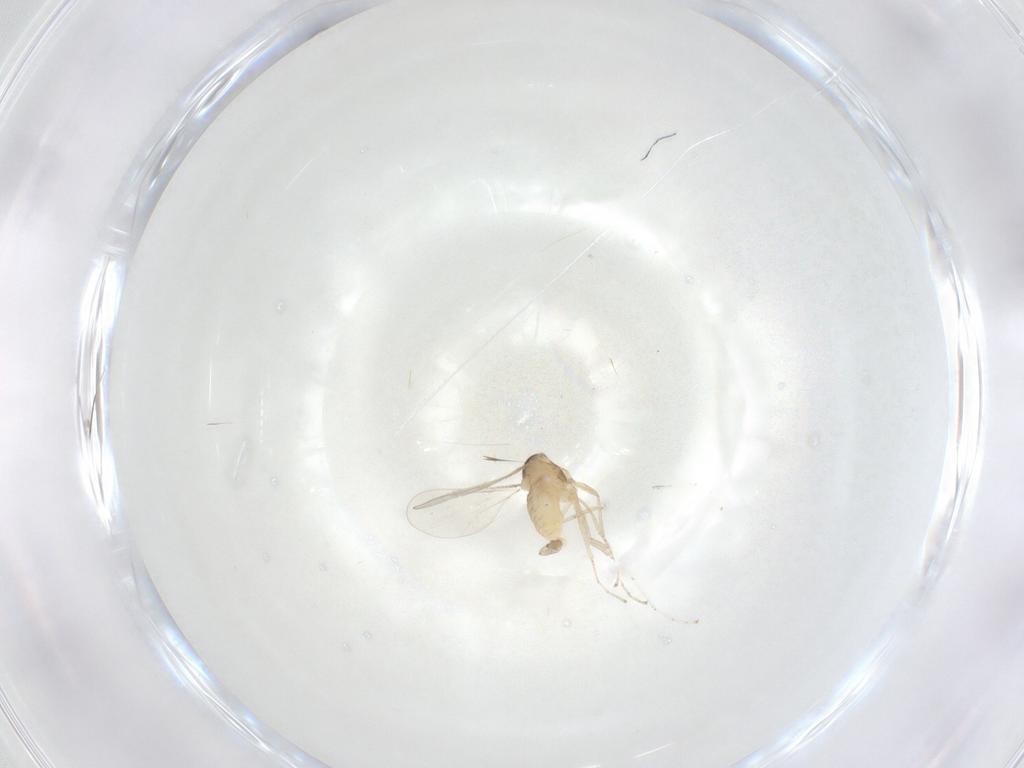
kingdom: Animalia
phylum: Arthropoda
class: Insecta
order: Diptera
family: Cecidomyiidae
